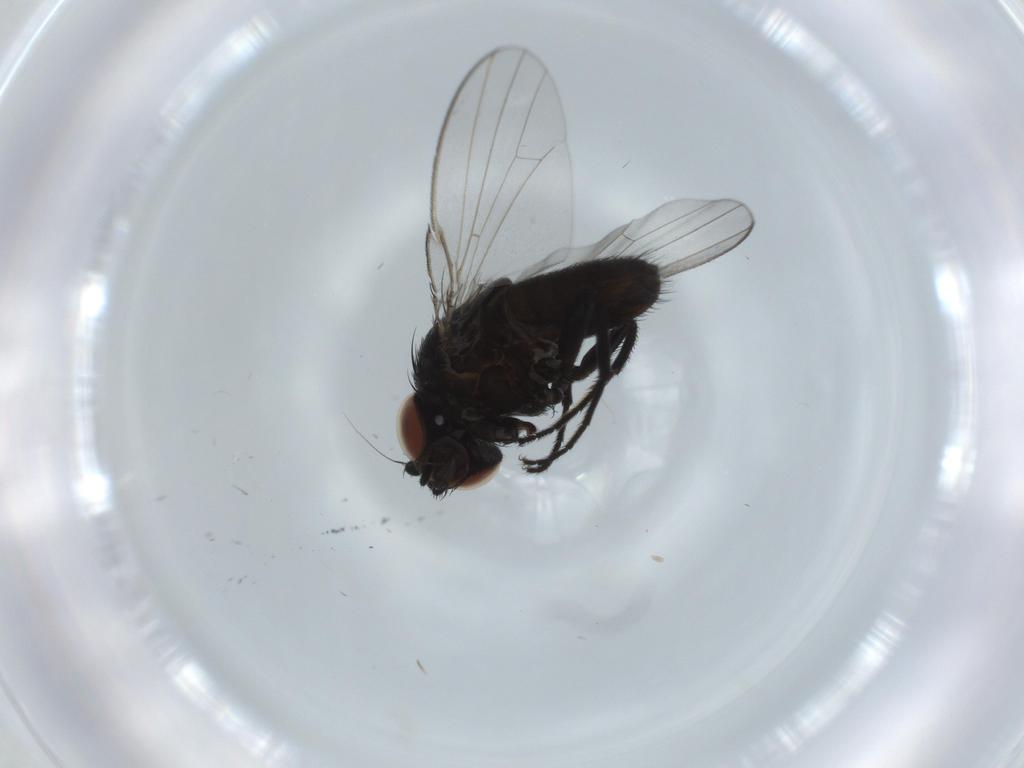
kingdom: Animalia
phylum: Arthropoda
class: Insecta
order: Diptera
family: Milichiidae
